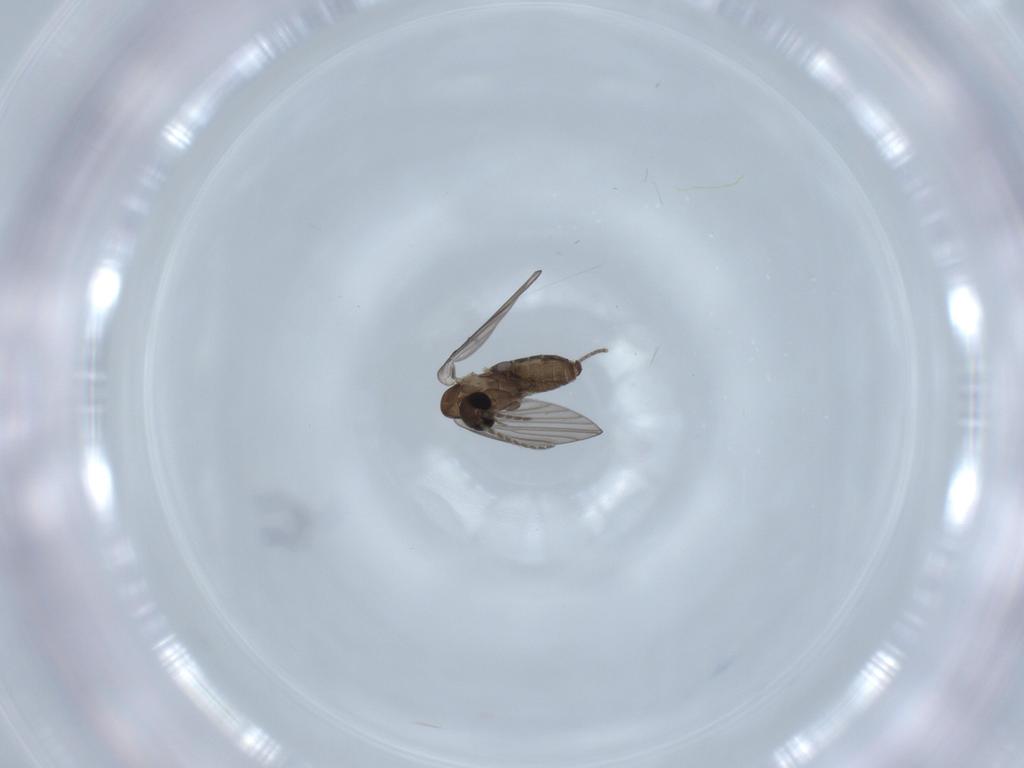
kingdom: Animalia
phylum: Arthropoda
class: Insecta
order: Diptera
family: Psychodidae
